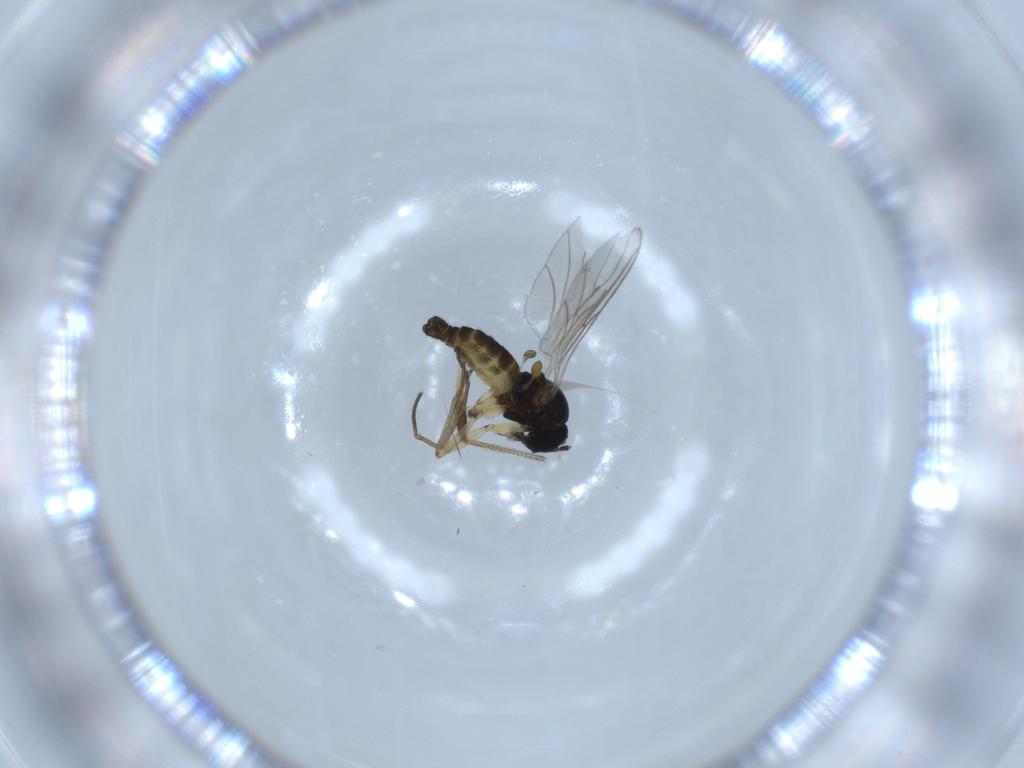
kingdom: Animalia
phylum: Arthropoda
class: Insecta
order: Diptera
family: Sciaridae
